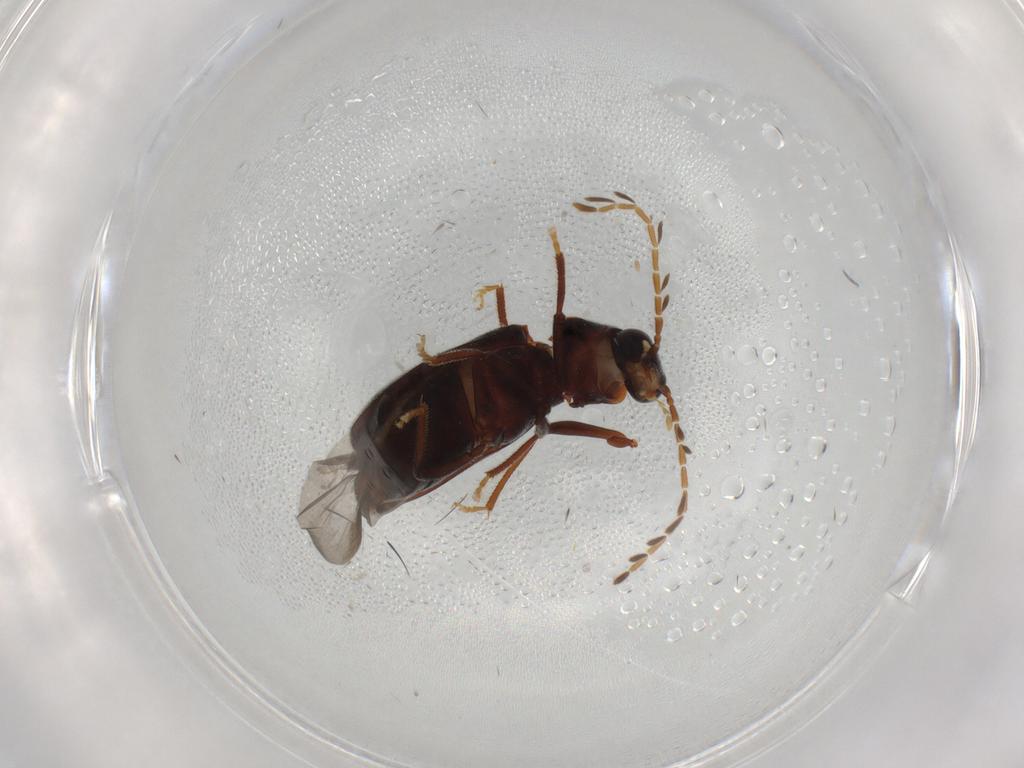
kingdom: Animalia
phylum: Arthropoda
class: Insecta
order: Coleoptera
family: Ptilodactylidae
